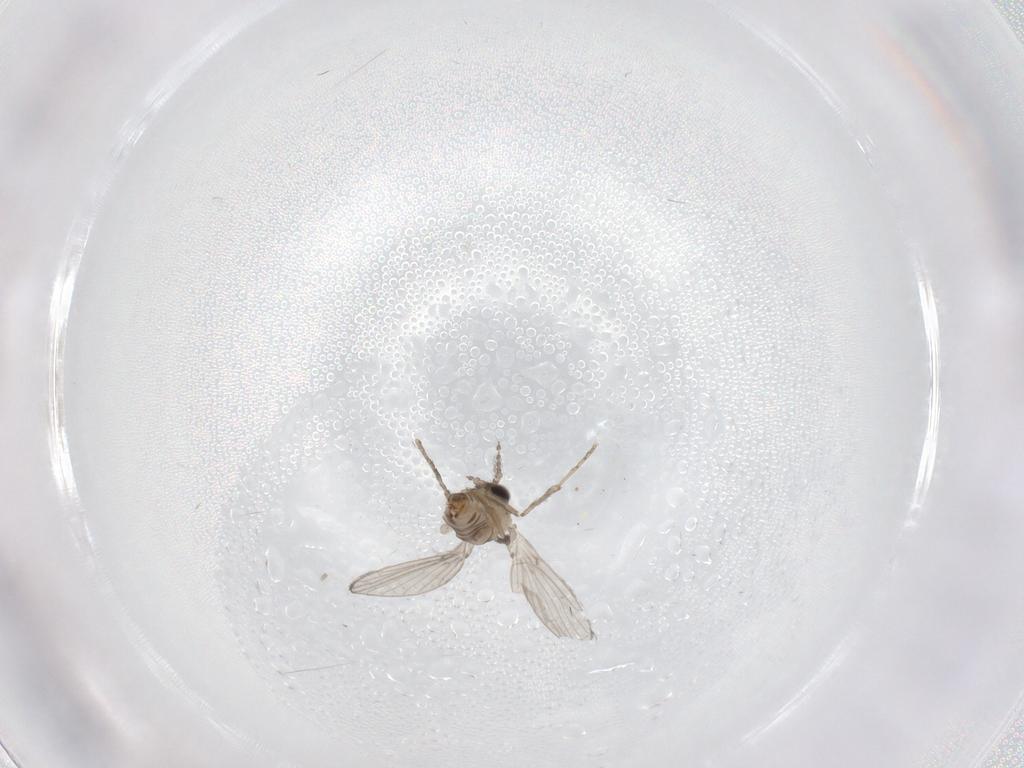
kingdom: Animalia
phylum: Arthropoda
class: Insecta
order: Diptera
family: Psychodidae
